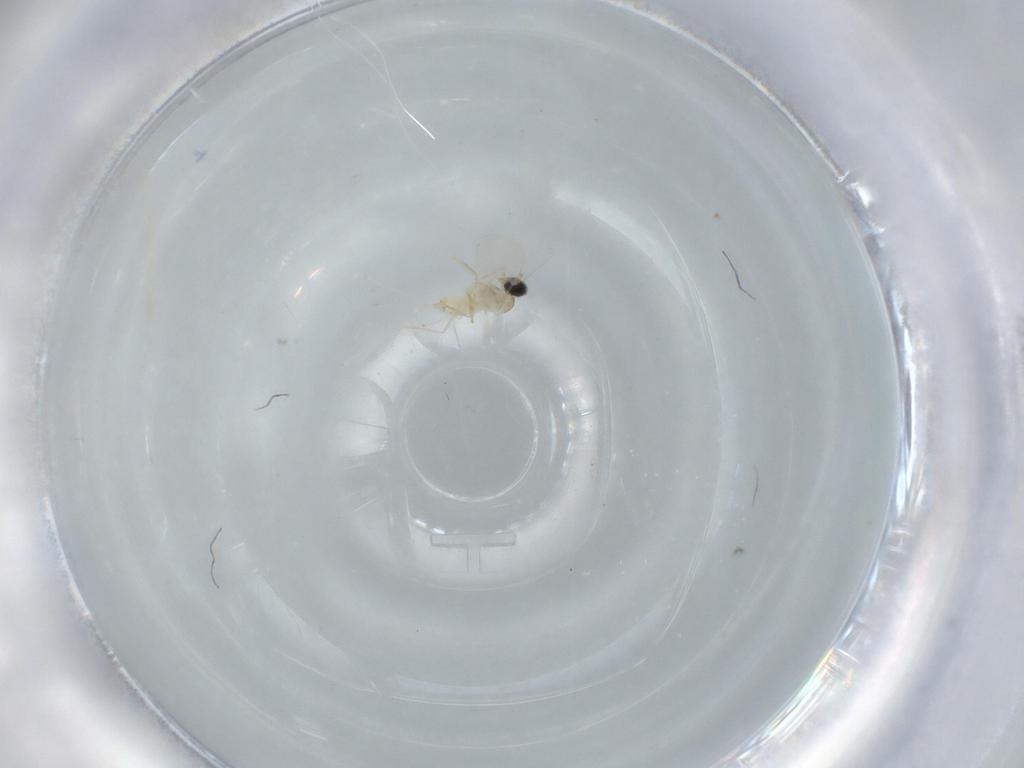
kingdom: Animalia
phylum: Arthropoda
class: Insecta
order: Diptera
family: Cecidomyiidae
